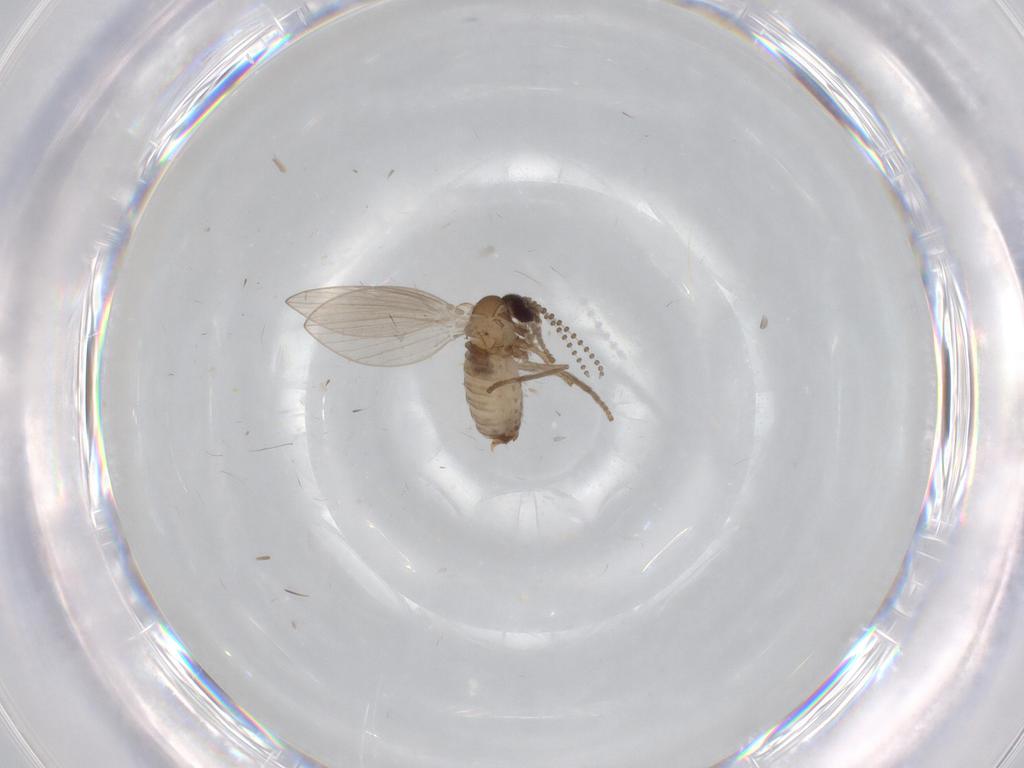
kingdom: Animalia
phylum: Arthropoda
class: Insecta
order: Diptera
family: Psychodidae
